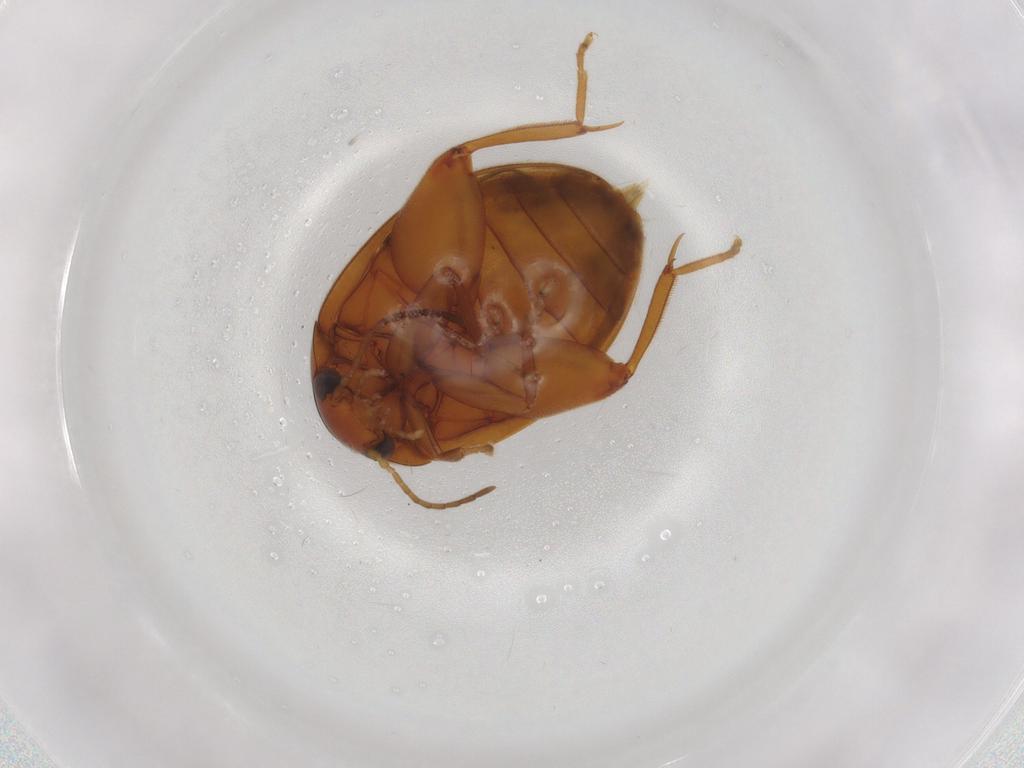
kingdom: Animalia
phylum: Arthropoda
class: Insecta
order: Coleoptera
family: Scirtidae
